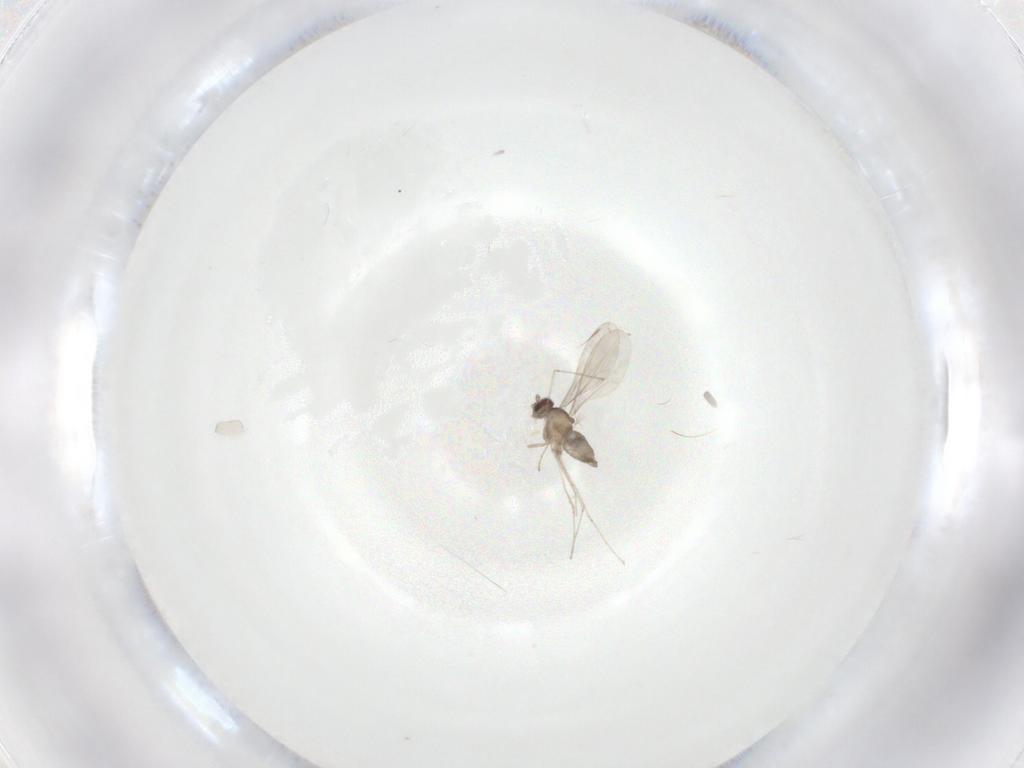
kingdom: Animalia
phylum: Arthropoda
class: Insecta
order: Diptera
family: Cecidomyiidae
